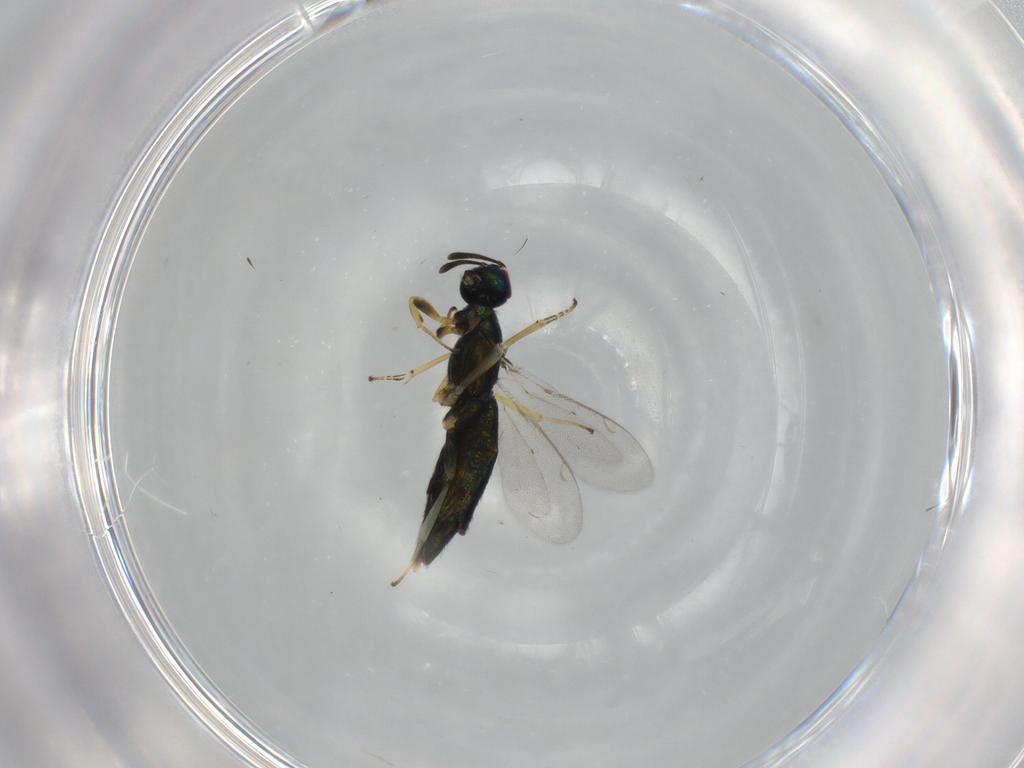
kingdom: Animalia
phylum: Arthropoda
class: Insecta
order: Hymenoptera
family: Eupelmidae
